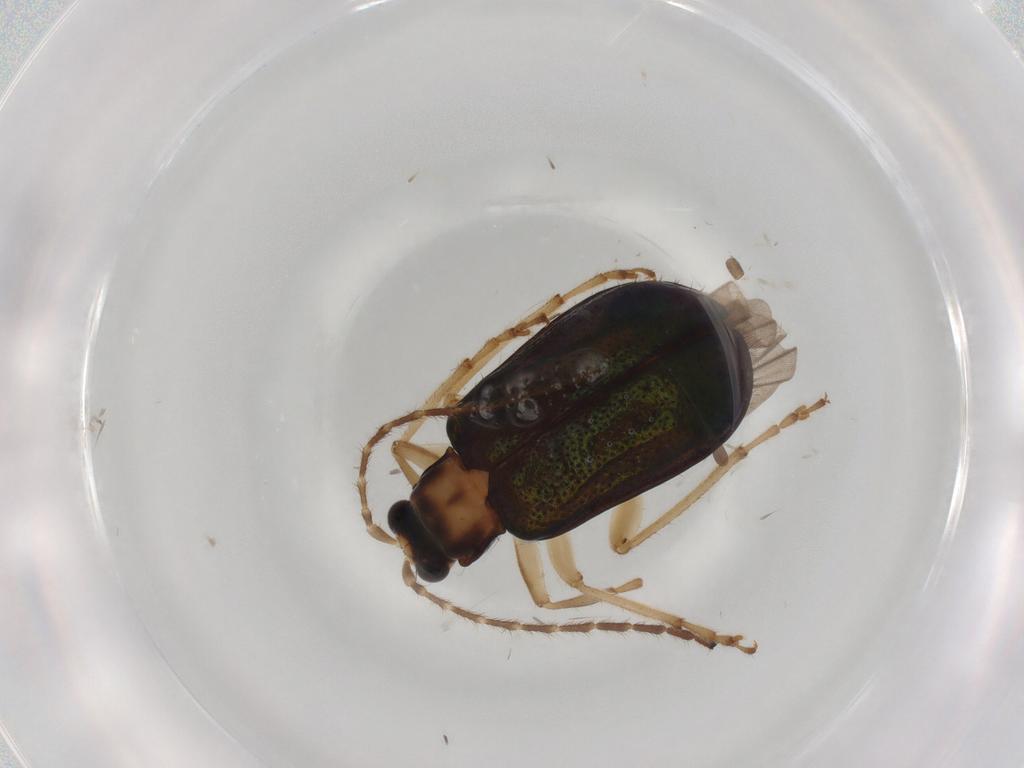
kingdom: Animalia
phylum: Arthropoda
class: Insecta
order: Coleoptera
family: Chrysomelidae
